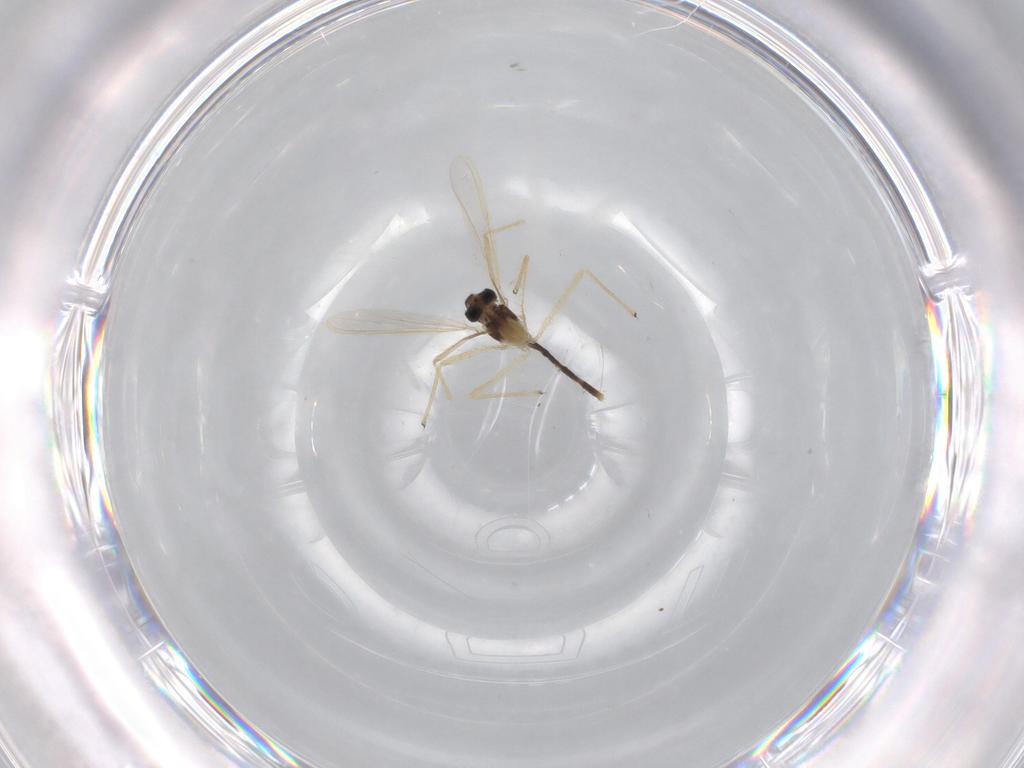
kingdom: Animalia
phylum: Arthropoda
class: Insecta
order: Diptera
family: Chironomidae
